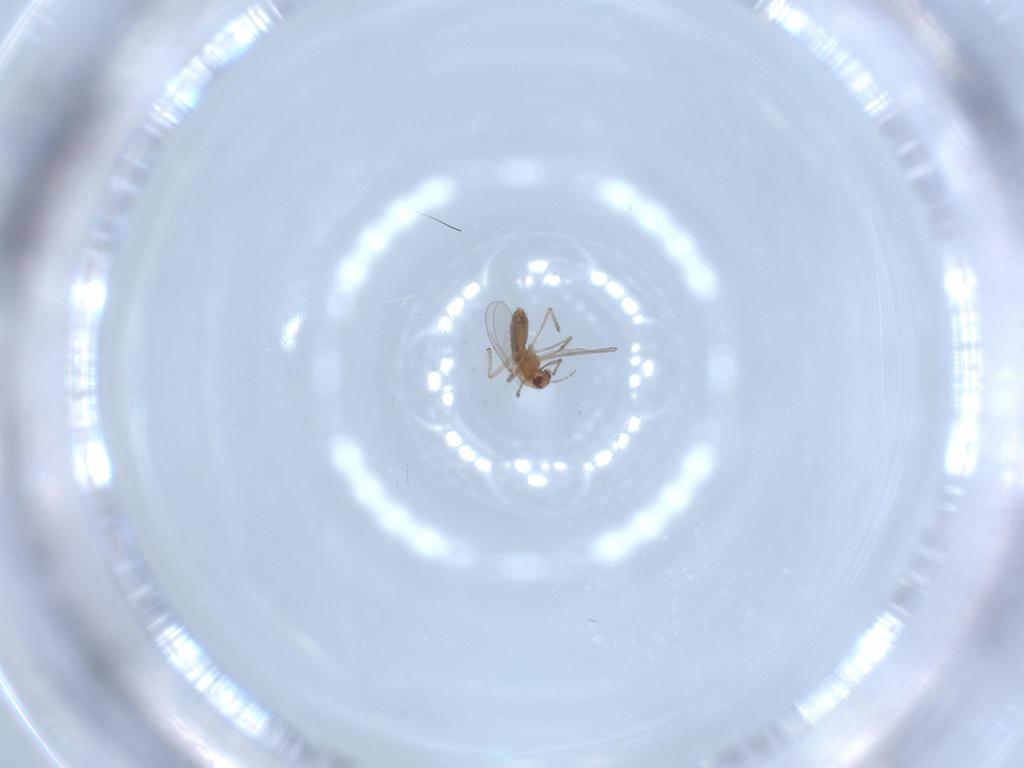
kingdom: Animalia
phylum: Arthropoda
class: Insecta
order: Diptera
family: Chironomidae
